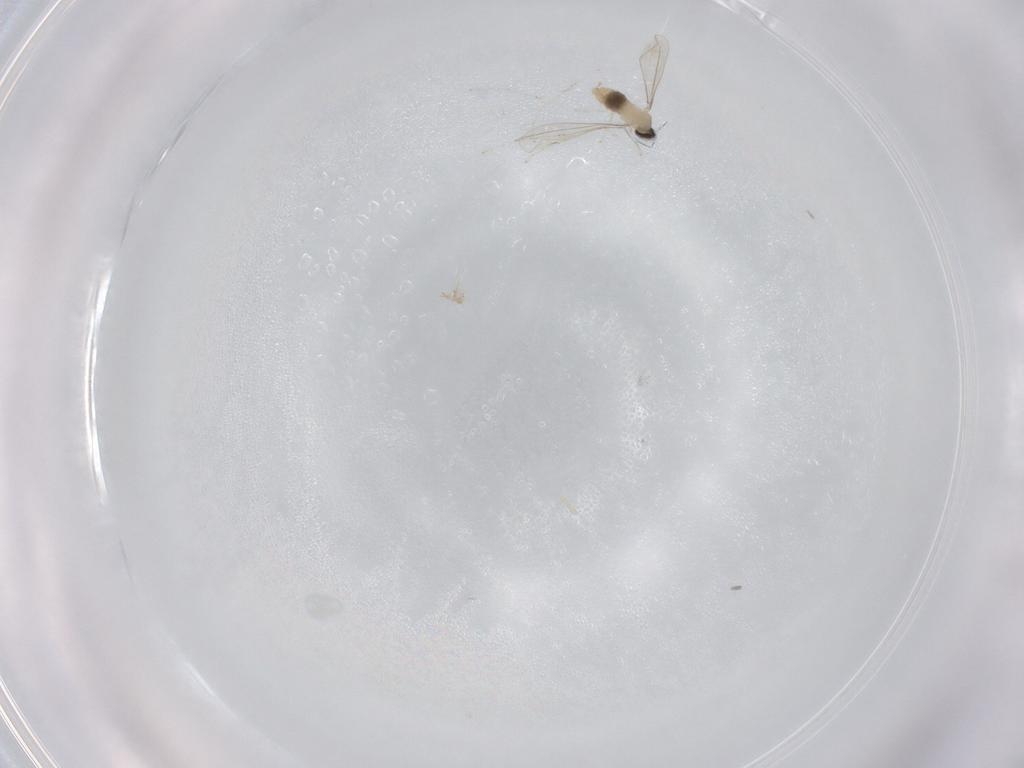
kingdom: Animalia
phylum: Arthropoda
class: Insecta
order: Diptera
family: Cecidomyiidae
